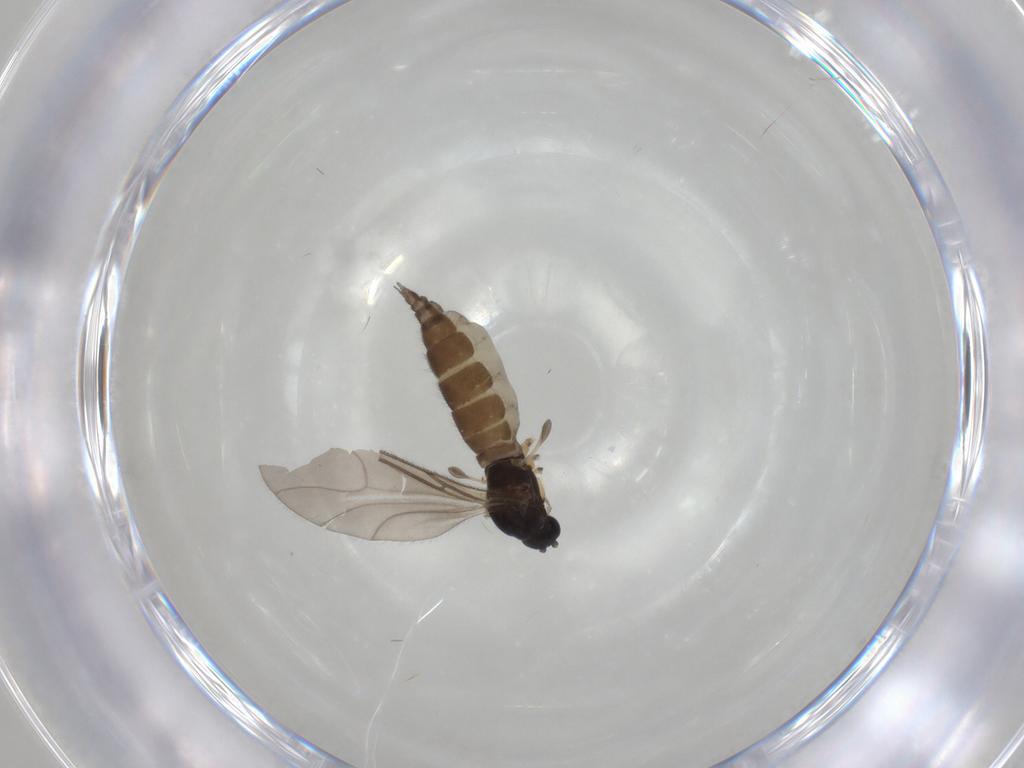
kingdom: Animalia
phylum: Arthropoda
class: Insecta
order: Diptera
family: Sciaridae
